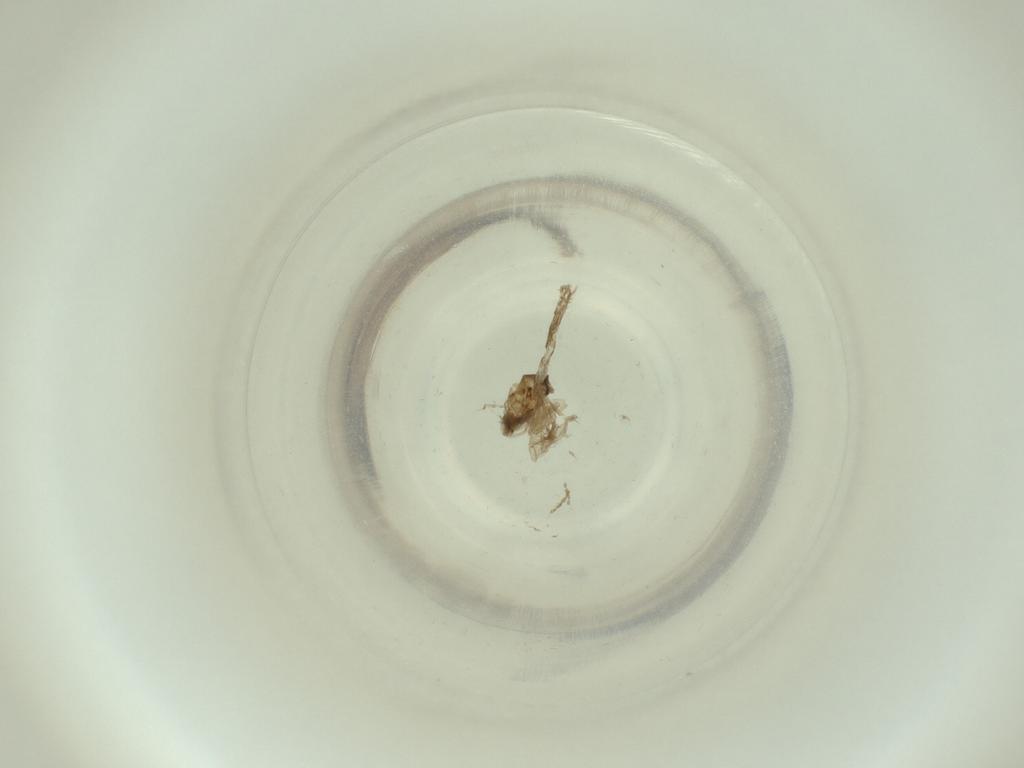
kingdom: Animalia
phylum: Arthropoda
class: Insecta
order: Diptera
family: Cecidomyiidae
